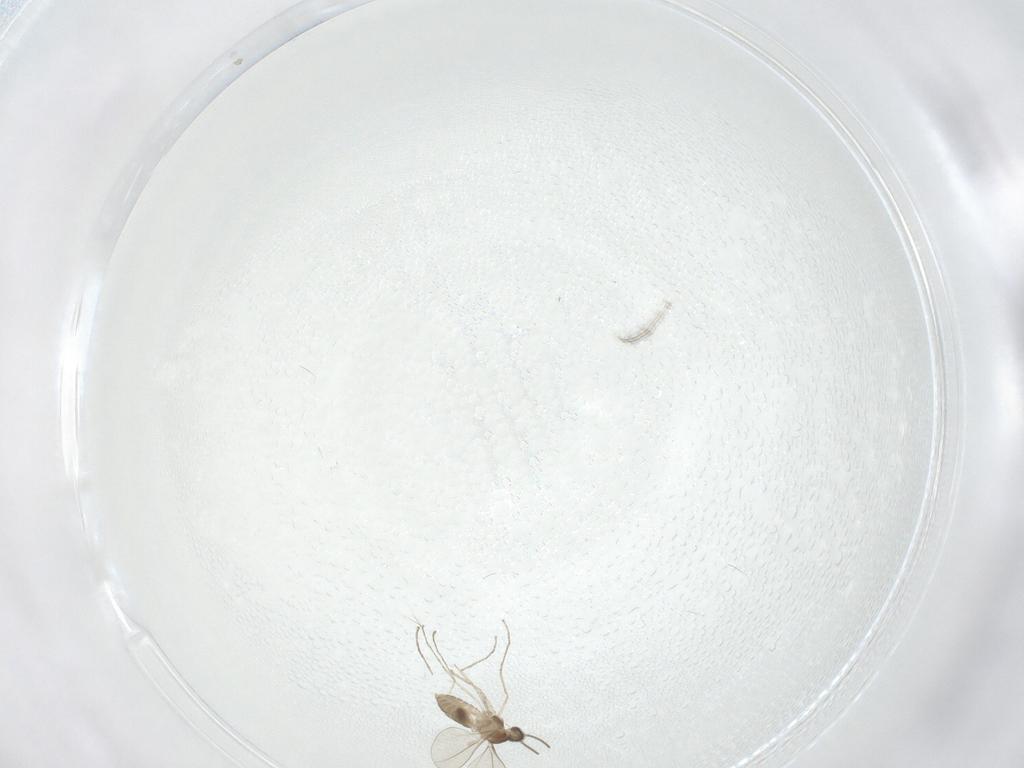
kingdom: Animalia
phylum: Arthropoda
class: Insecta
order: Diptera
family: Cecidomyiidae
